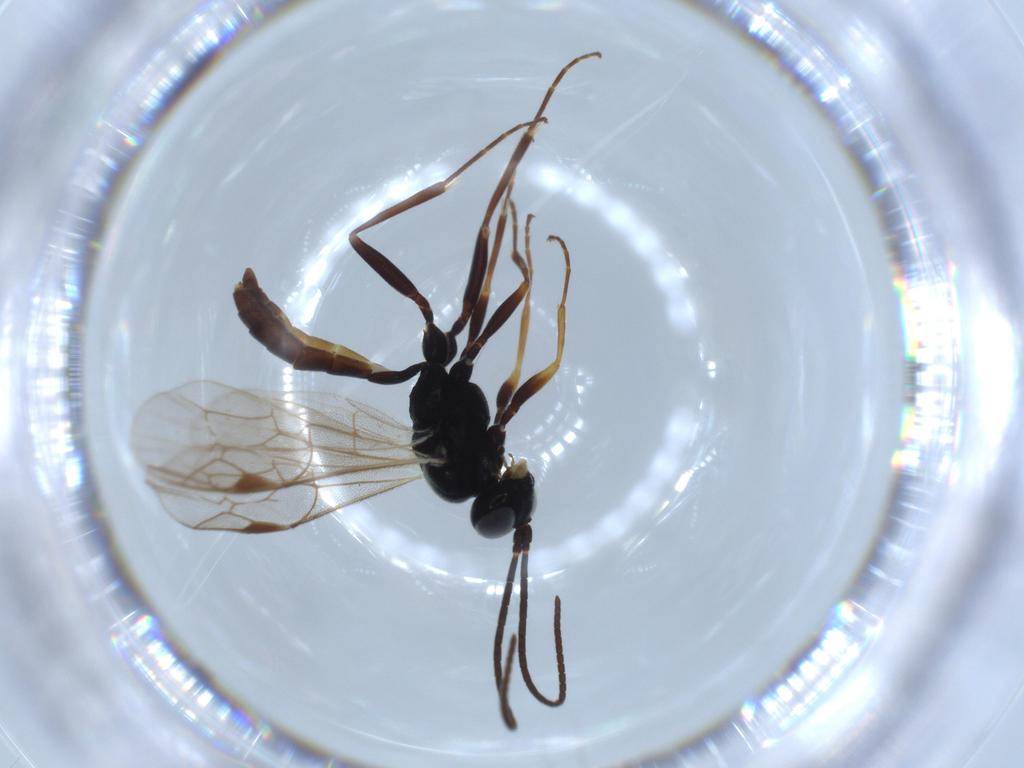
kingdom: Animalia
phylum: Arthropoda
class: Insecta
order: Hymenoptera
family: Ichneumonidae
